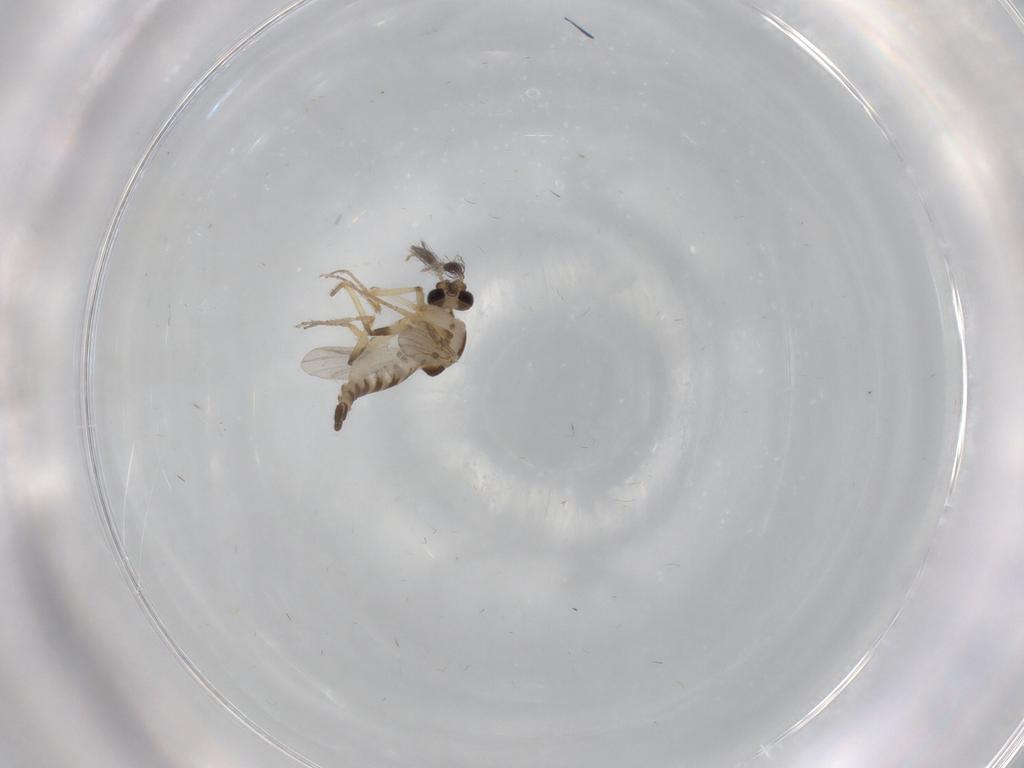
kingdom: Animalia
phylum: Arthropoda
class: Insecta
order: Diptera
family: Ceratopogonidae
